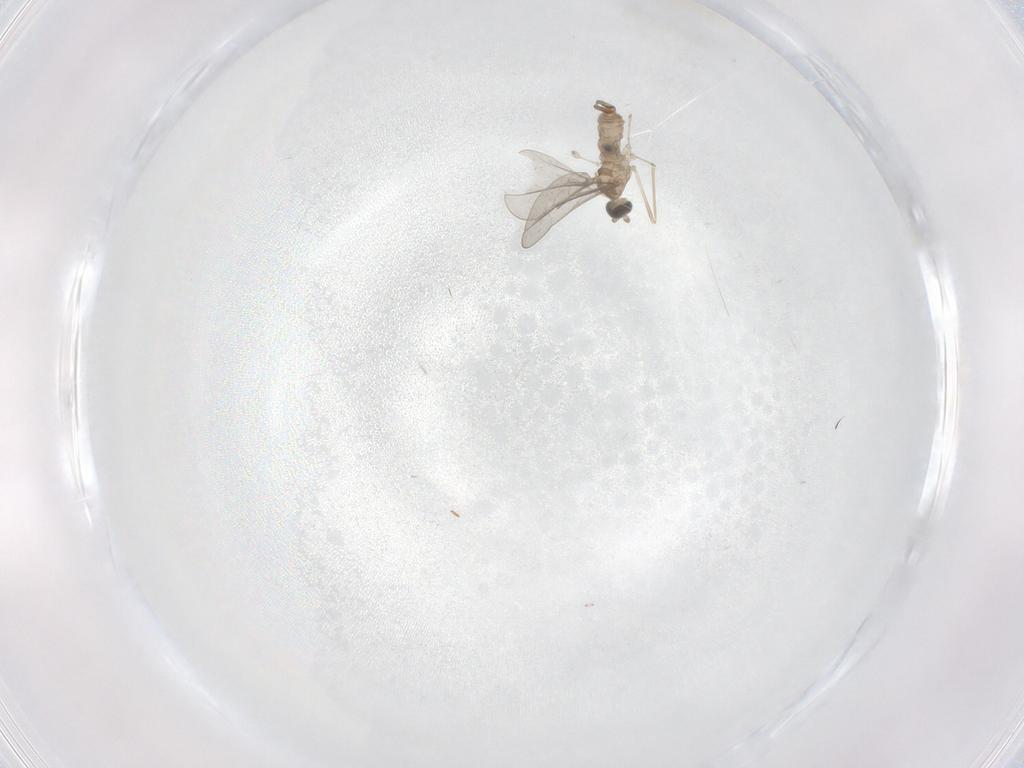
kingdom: Animalia
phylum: Arthropoda
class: Insecta
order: Diptera
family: Cecidomyiidae
